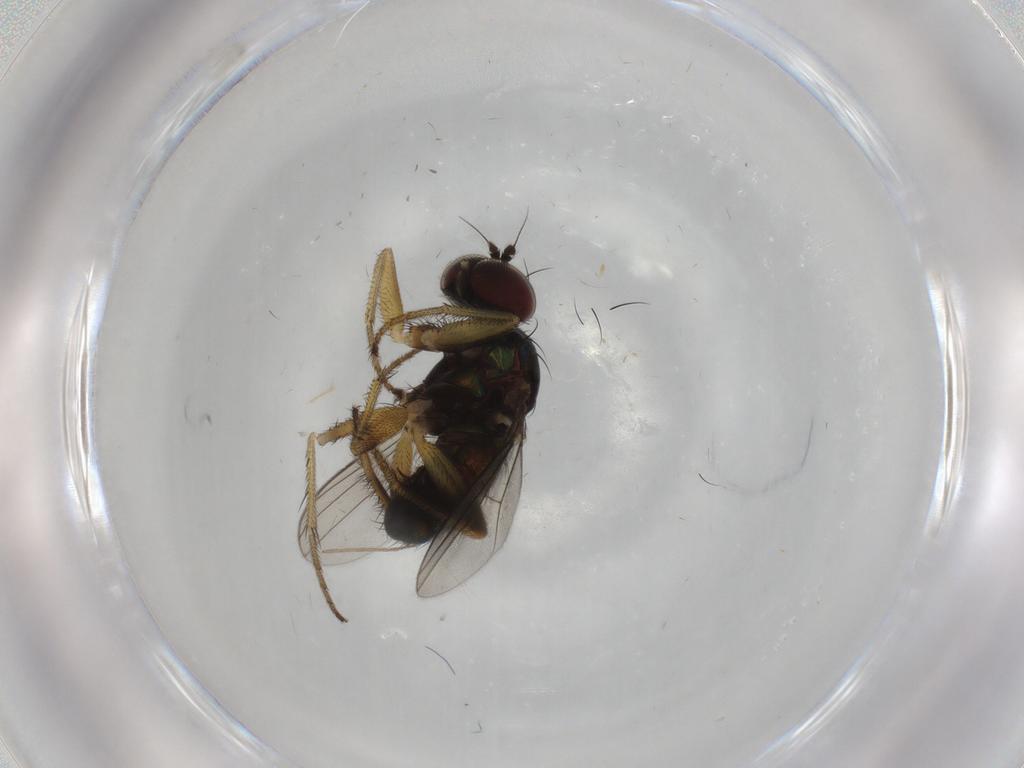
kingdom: Animalia
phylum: Arthropoda
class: Insecta
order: Diptera
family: Dolichopodidae
